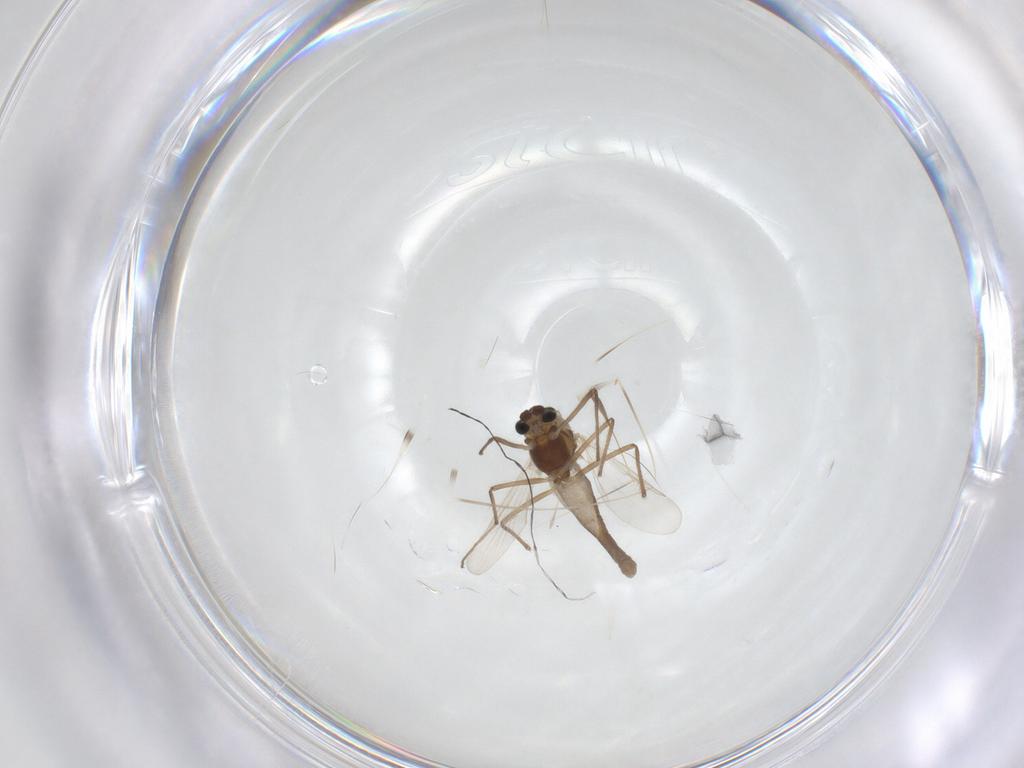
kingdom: Animalia
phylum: Arthropoda
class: Insecta
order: Diptera
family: Chironomidae
